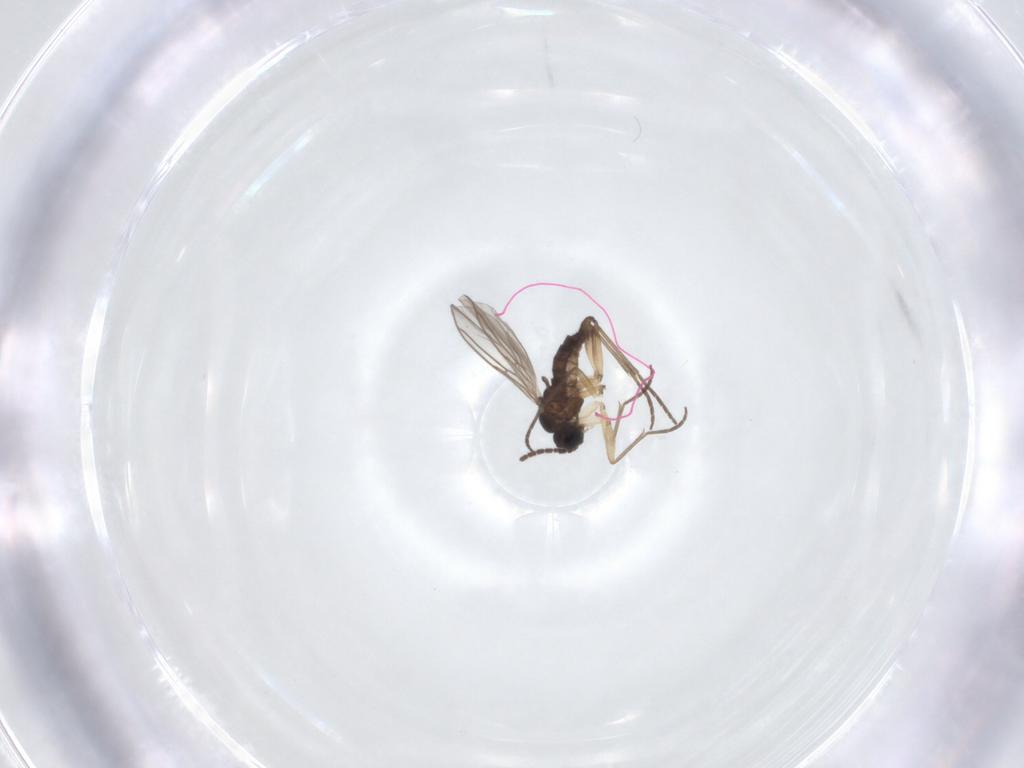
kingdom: Animalia
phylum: Arthropoda
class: Insecta
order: Diptera
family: Sciaridae
